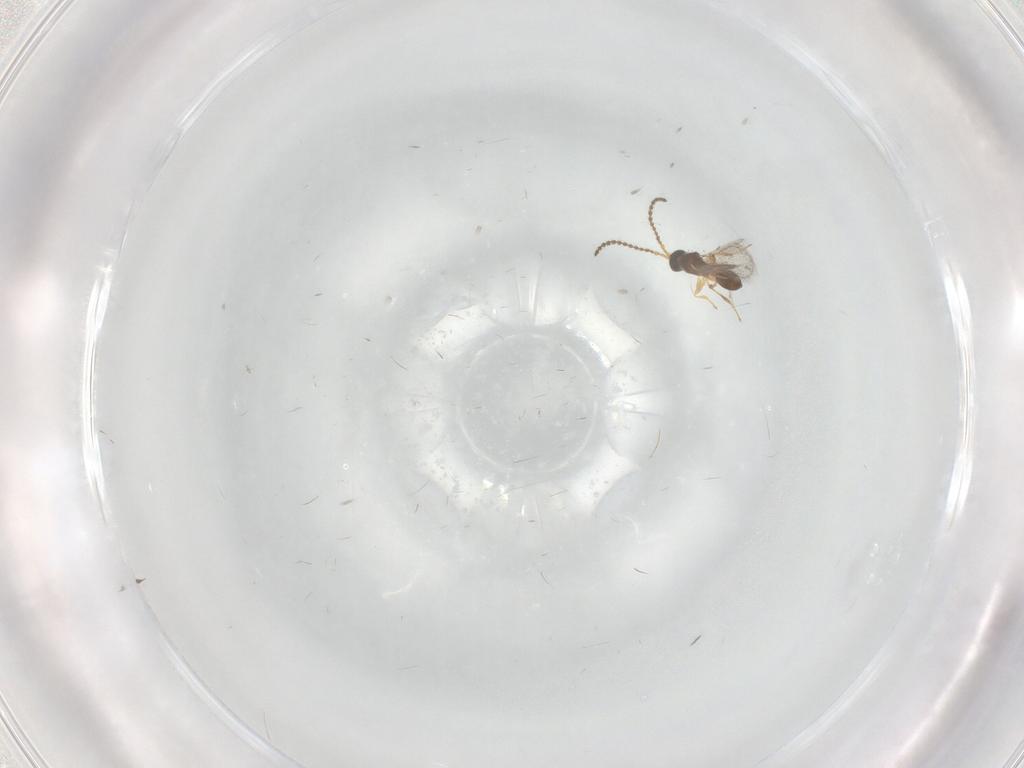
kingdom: Animalia
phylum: Arthropoda
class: Insecta
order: Hymenoptera
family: Diapriidae
